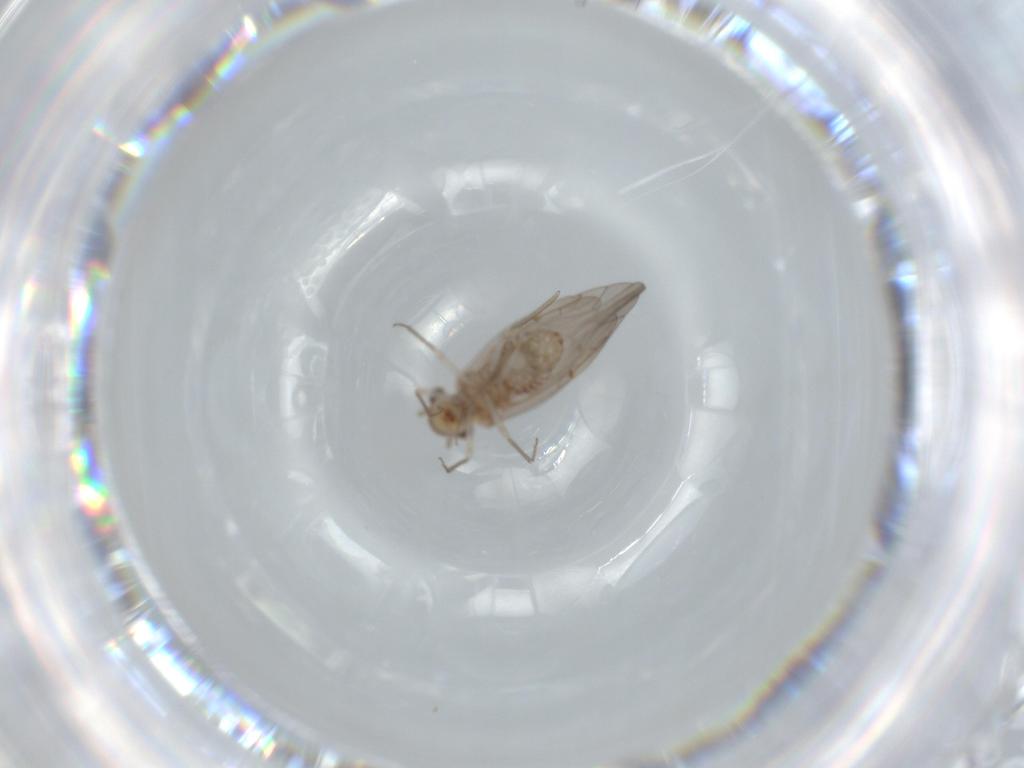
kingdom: Animalia
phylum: Arthropoda
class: Insecta
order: Psocodea
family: Lachesillidae
